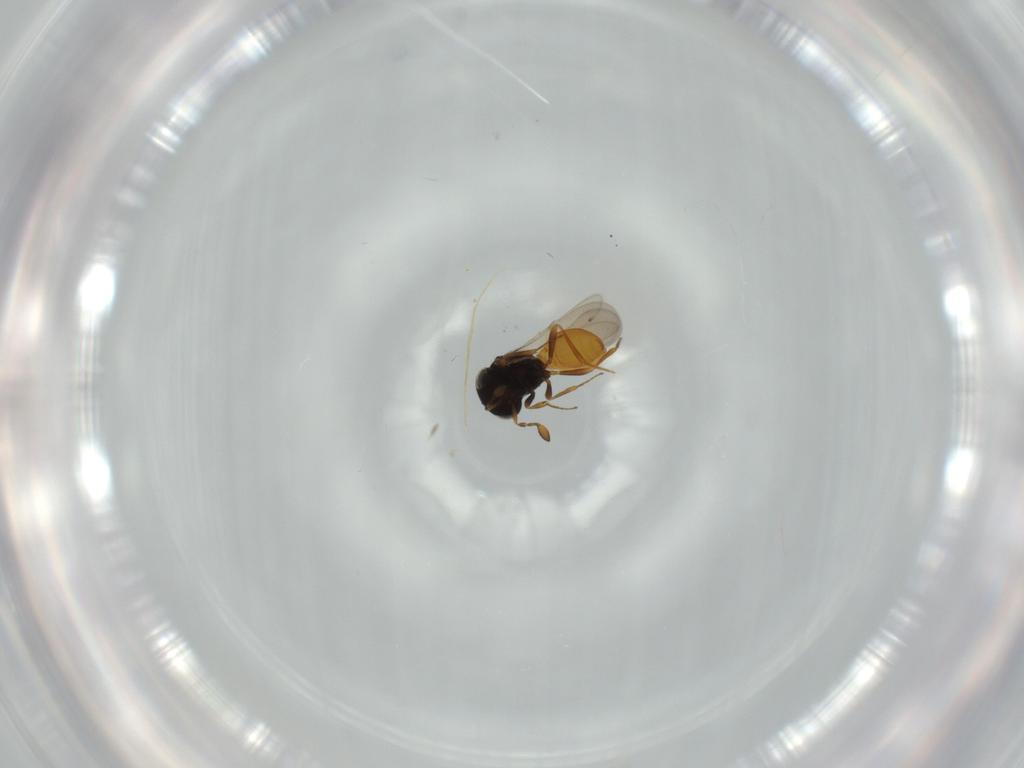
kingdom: Animalia
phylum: Arthropoda
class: Insecta
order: Hymenoptera
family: Scelionidae
